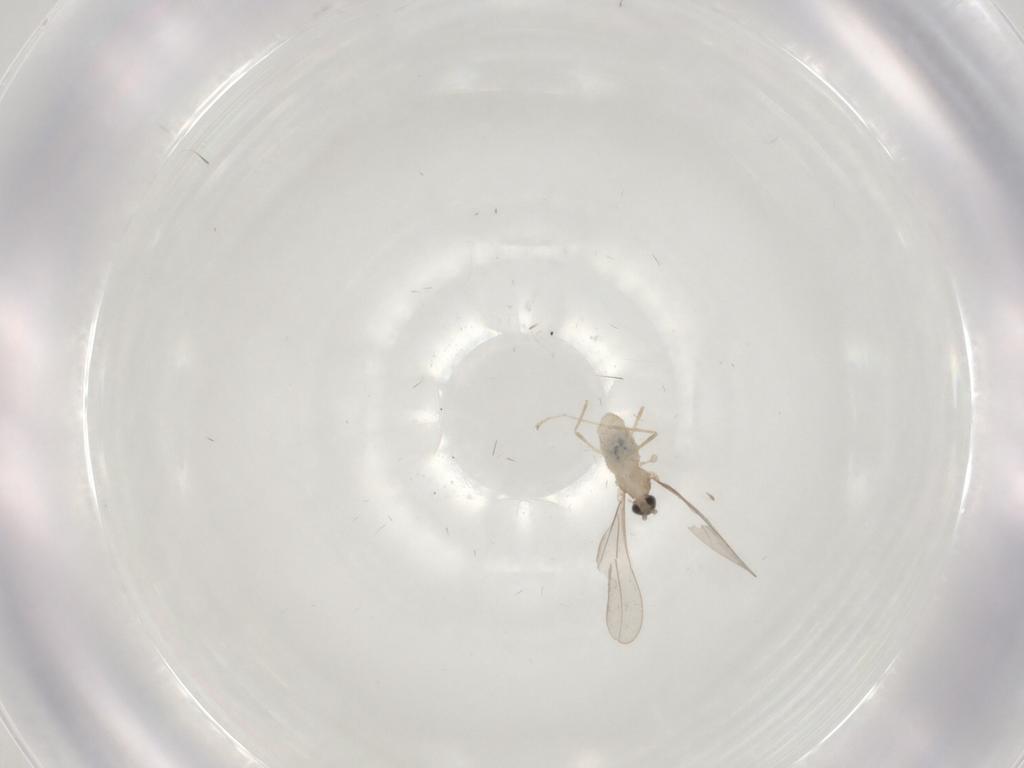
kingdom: Animalia
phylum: Arthropoda
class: Insecta
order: Diptera
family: Cecidomyiidae
